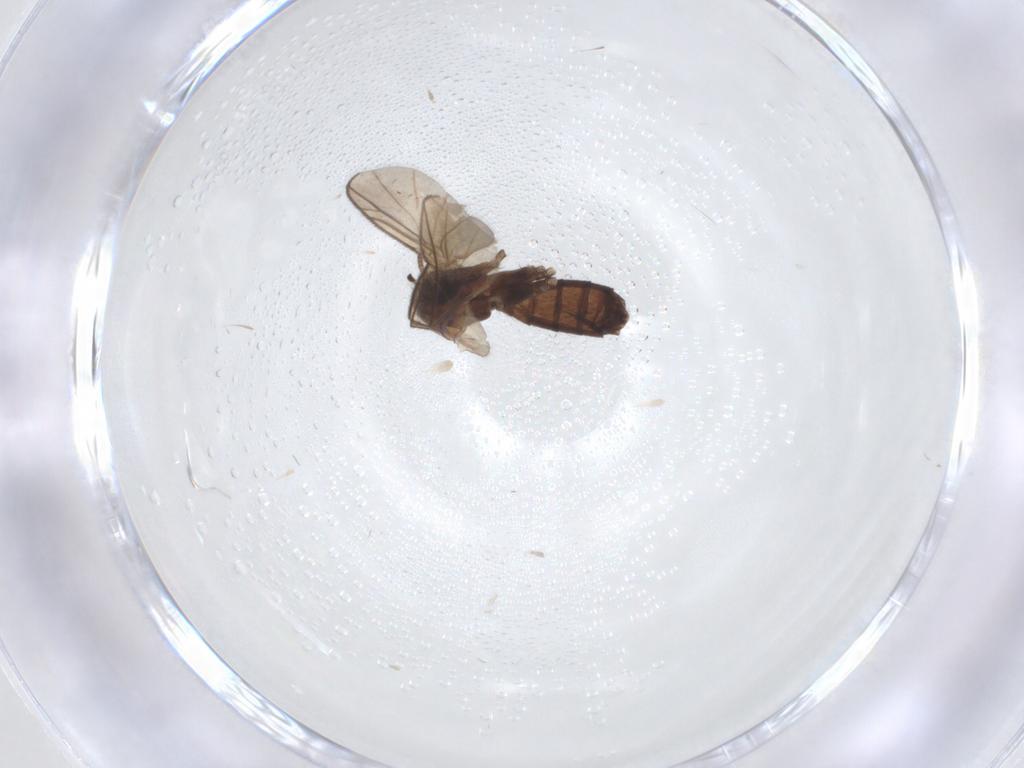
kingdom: Animalia
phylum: Arthropoda
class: Insecta
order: Diptera
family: Keroplatidae
